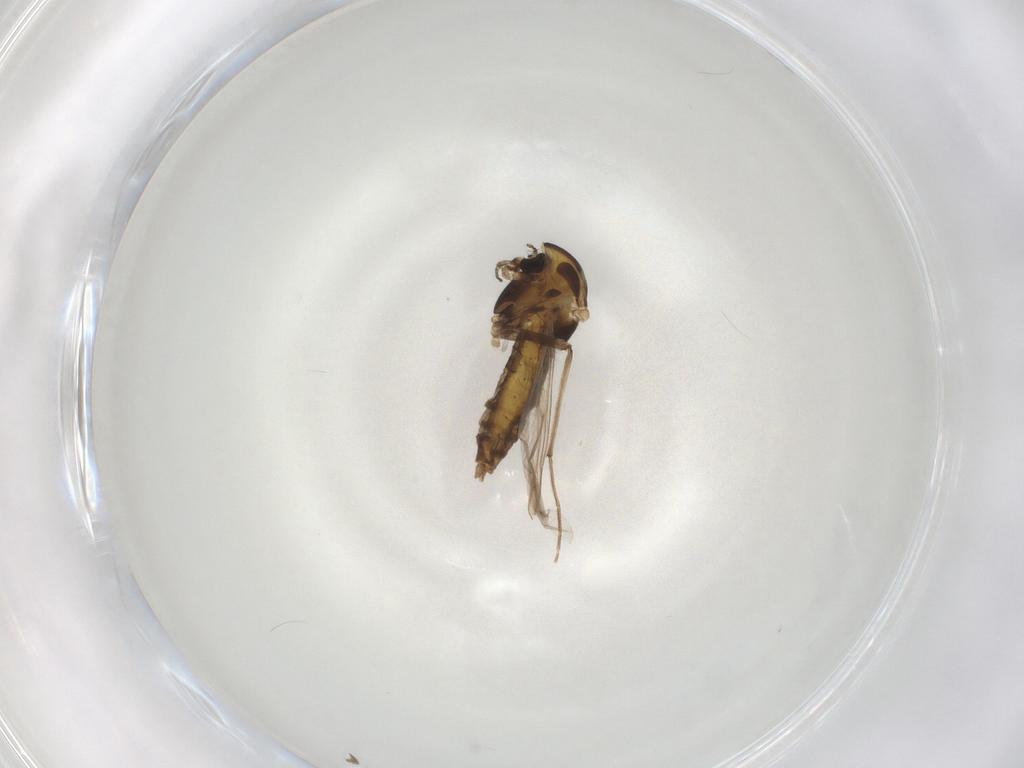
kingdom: Animalia
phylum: Arthropoda
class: Insecta
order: Diptera
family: Chironomidae
